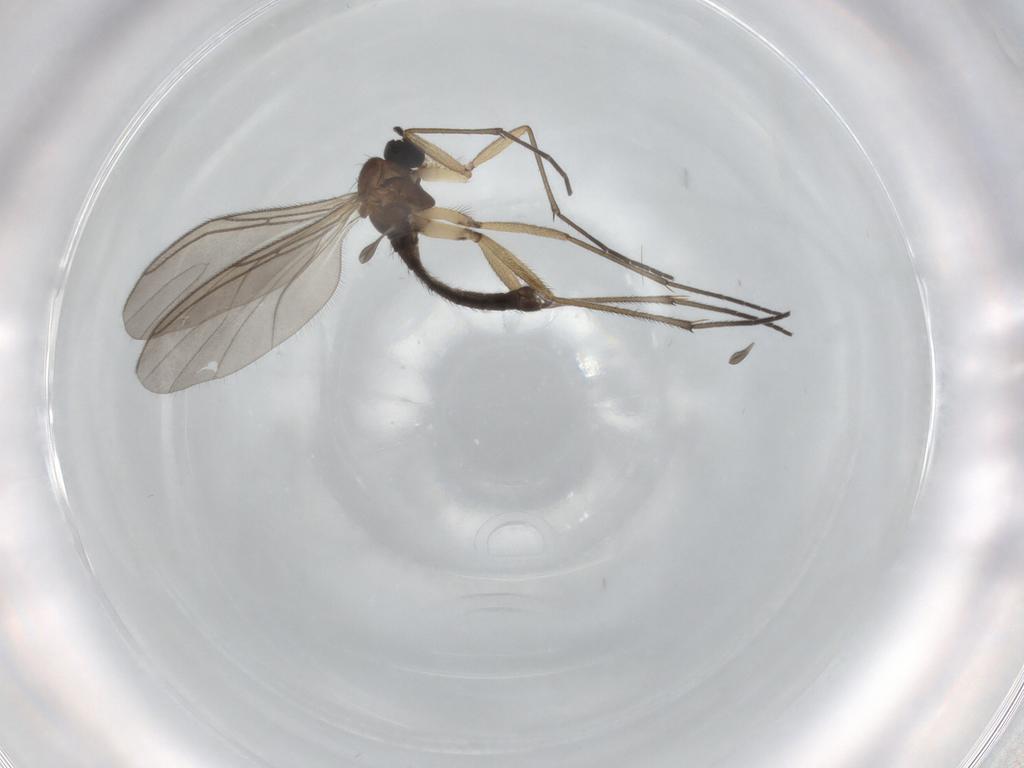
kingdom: Animalia
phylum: Arthropoda
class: Insecta
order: Diptera
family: Sciaridae
